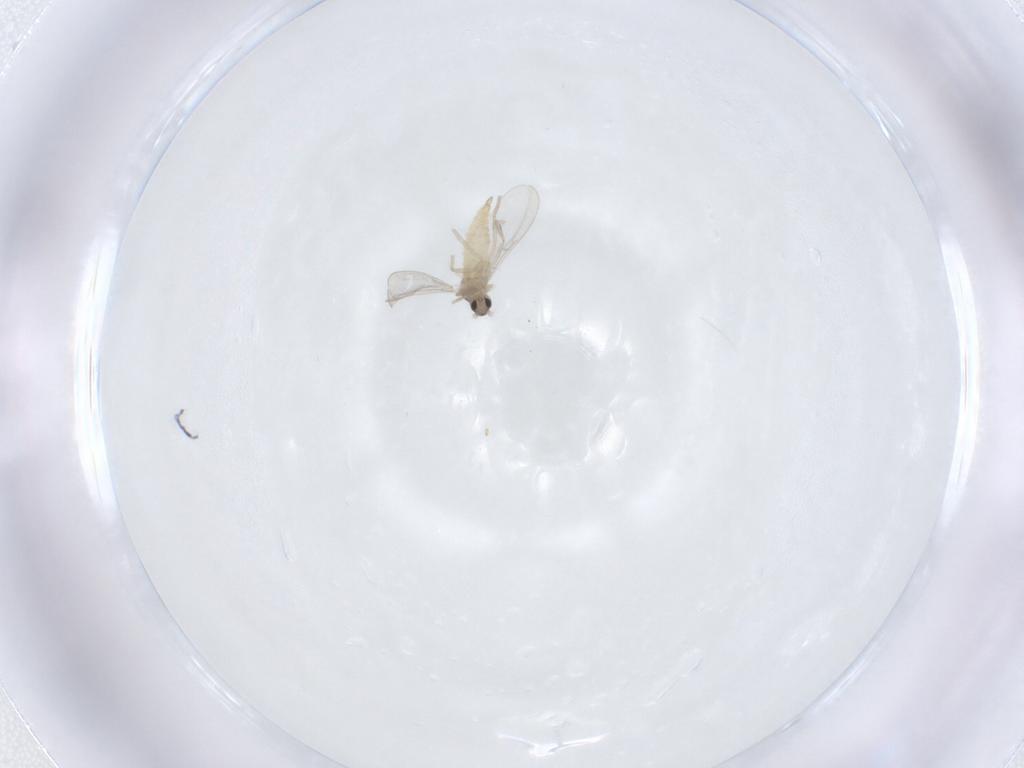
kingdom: Animalia
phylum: Arthropoda
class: Insecta
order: Diptera
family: Cecidomyiidae
